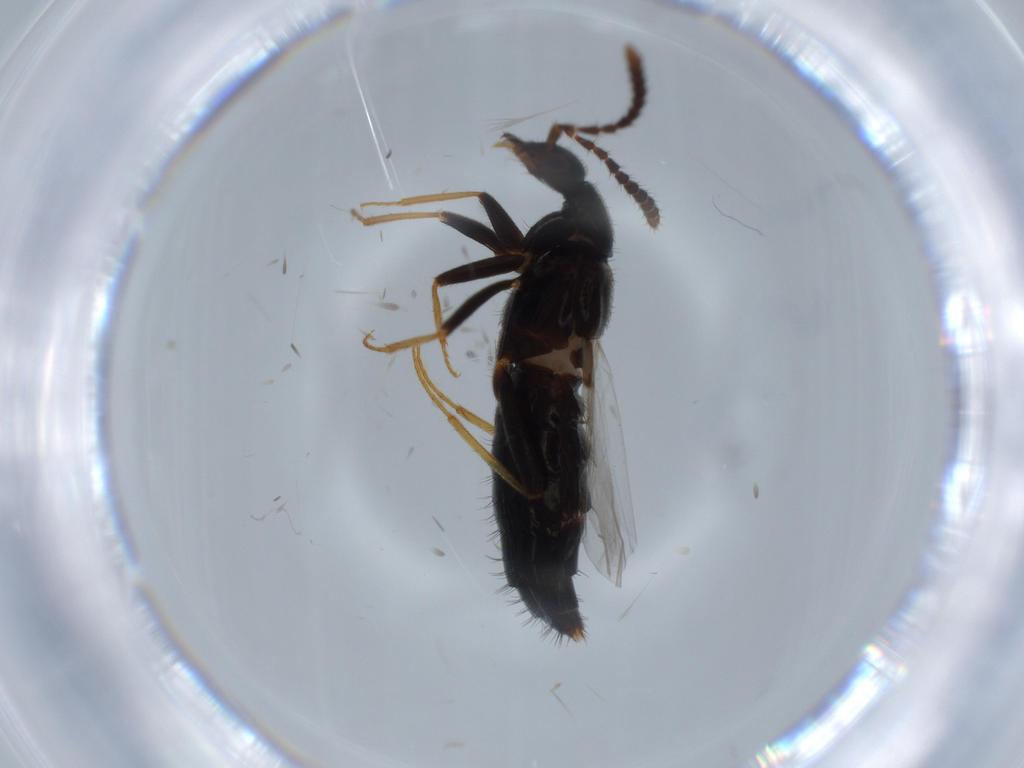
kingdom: Animalia
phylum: Arthropoda
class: Insecta
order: Coleoptera
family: Staphylinidae
